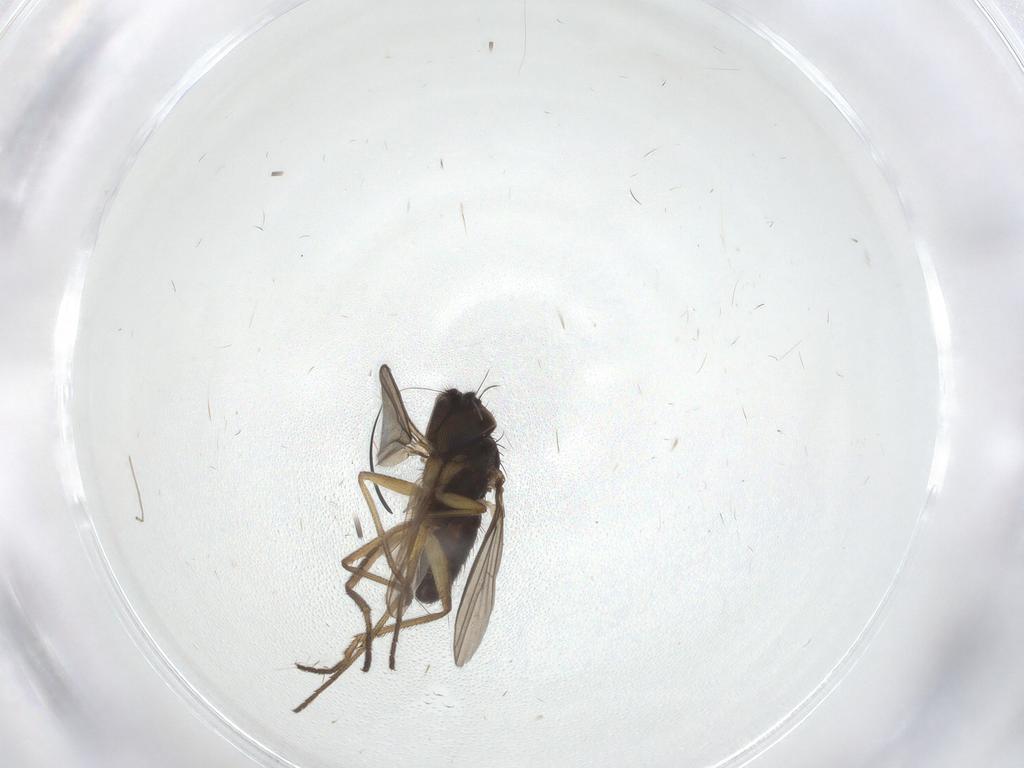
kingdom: Animalia
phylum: Arthropoda
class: Insecta
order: Diptera
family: Dolichopodidae
